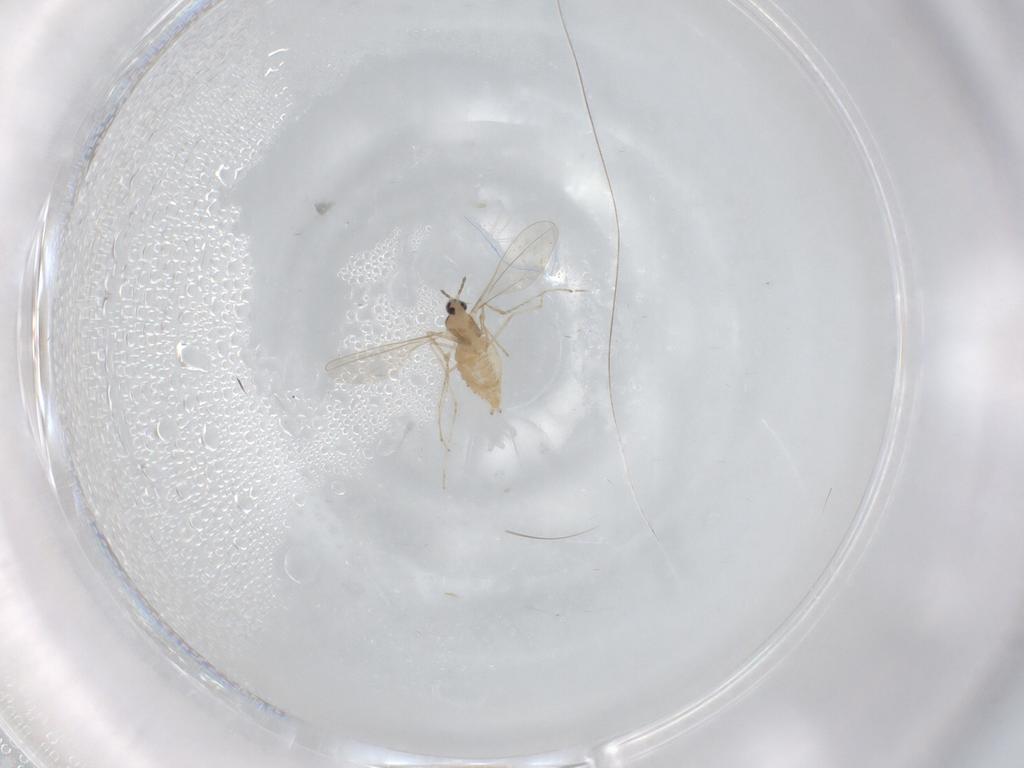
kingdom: Animalia
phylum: Arthropoda
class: Insecta
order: Diptera
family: Cecidomyiidae
